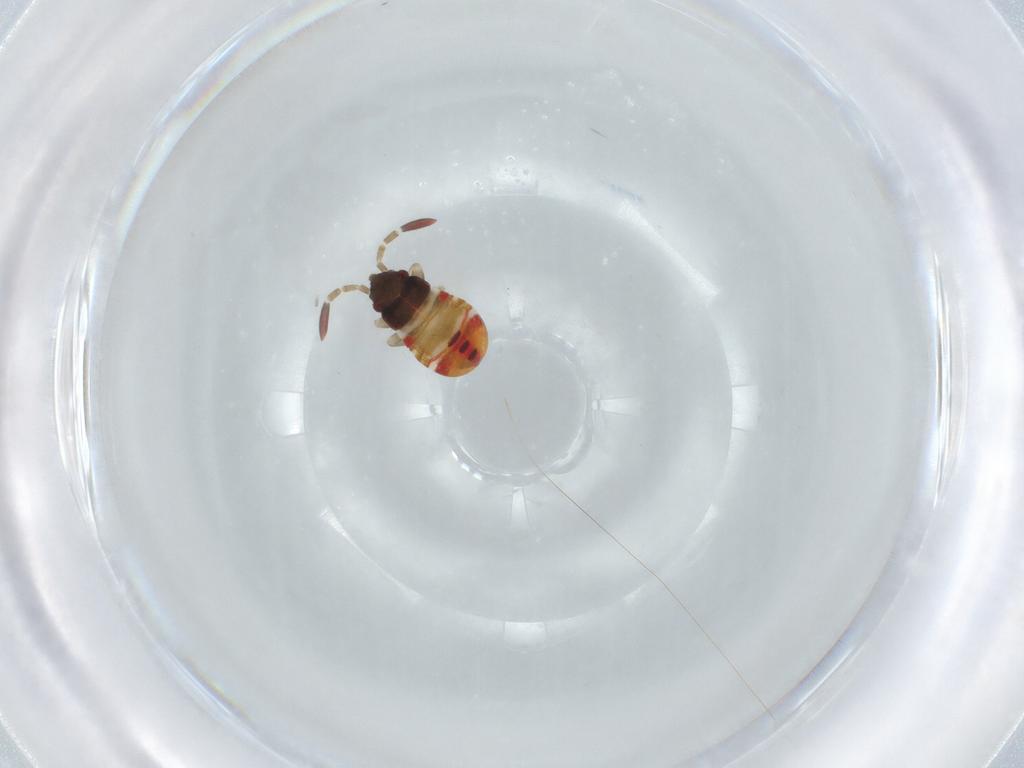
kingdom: Animalia
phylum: Arthropoda
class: Insecta
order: Hemiptera
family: Rhyparochromidae
